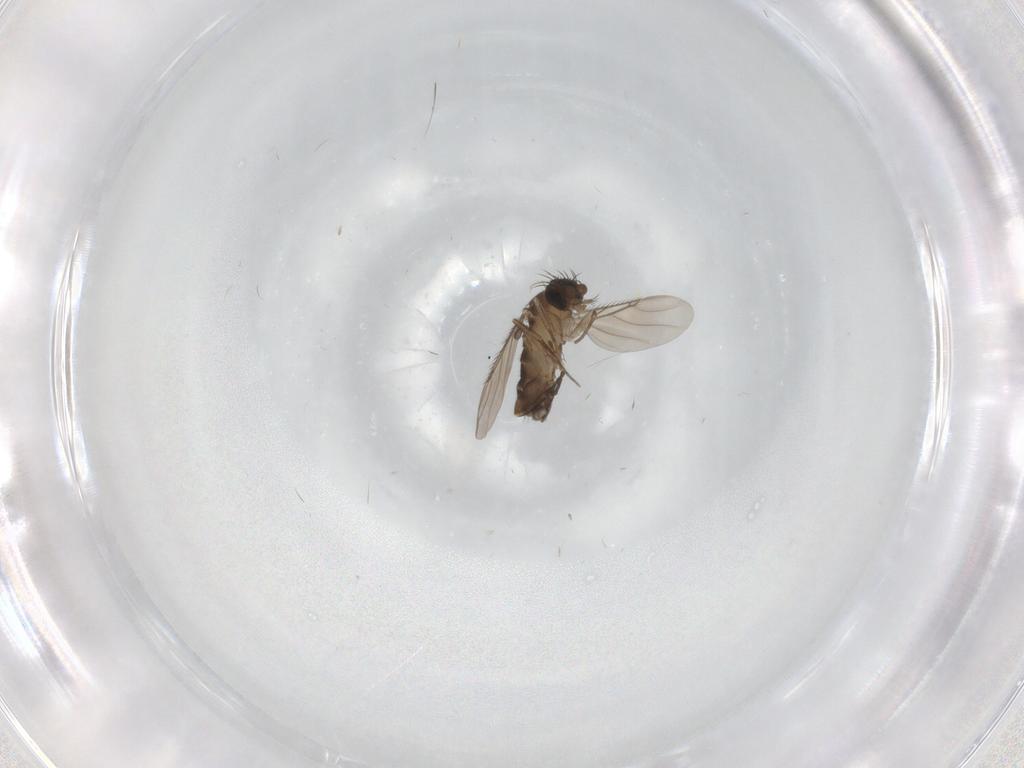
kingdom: Animalia
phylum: Arthropoda
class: Insecta
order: Diptera
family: Phoridae
